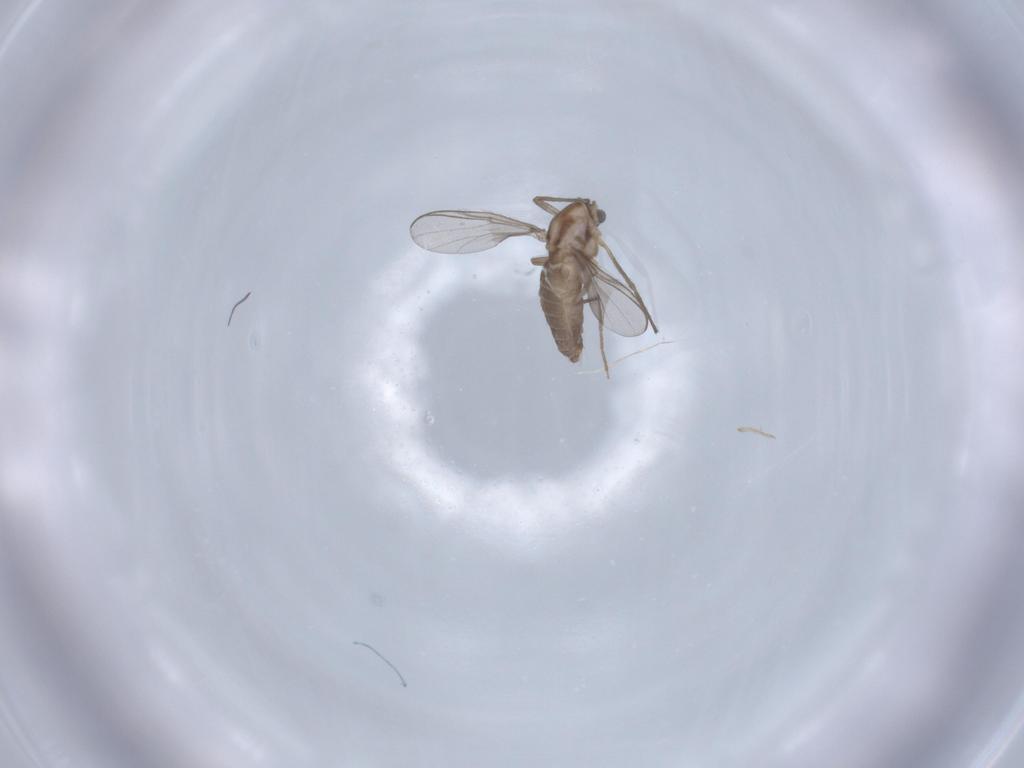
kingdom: Animalia
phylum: Arthropoda
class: Insecta
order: Diptera
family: Chironomidae
